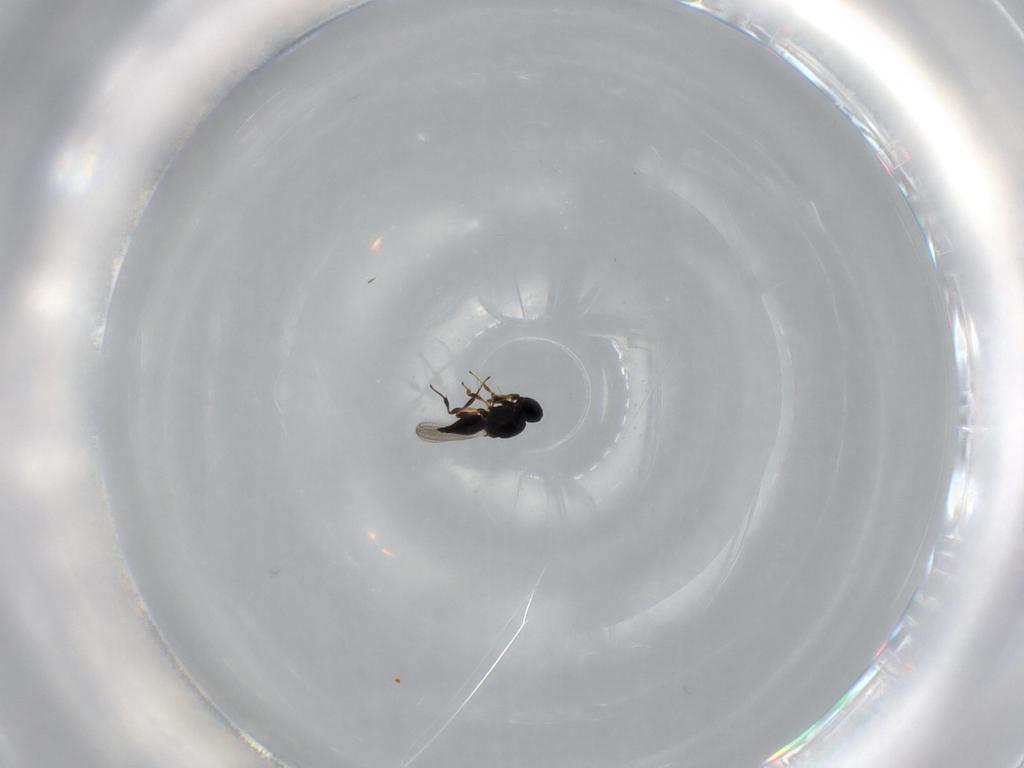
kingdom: Animalia
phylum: Arthropoda
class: Insecta
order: Hymenoptera
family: Platygastridae
